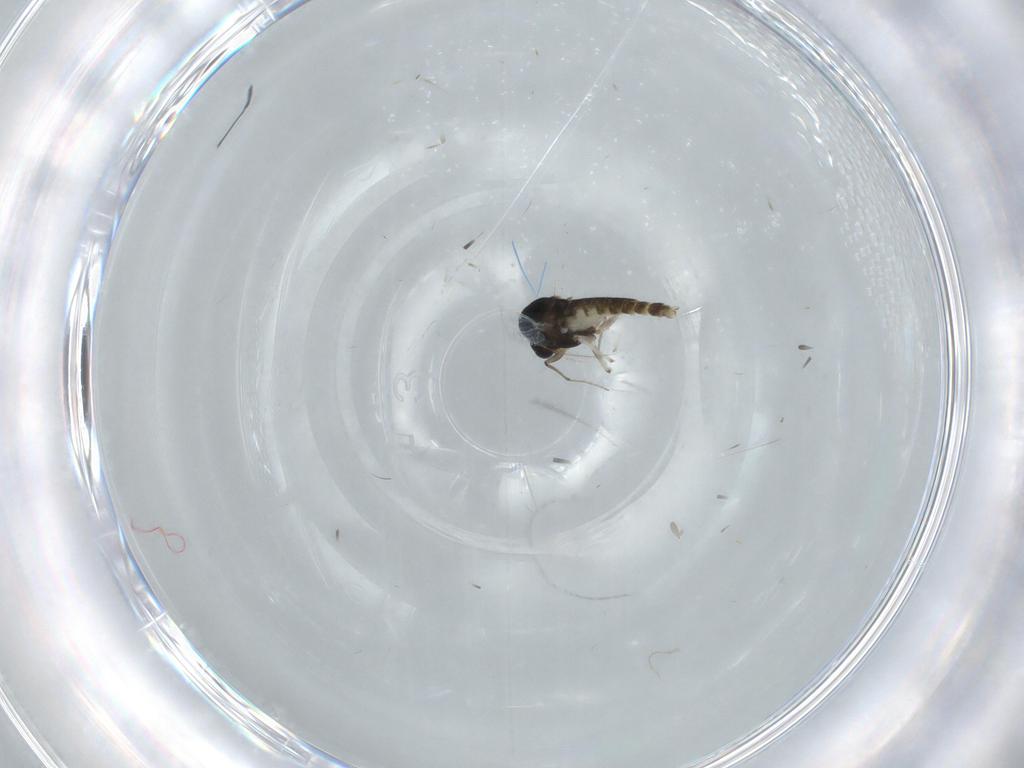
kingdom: Animalia
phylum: Arthropoda
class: Insecta
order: Diptera
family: Chironomidae
